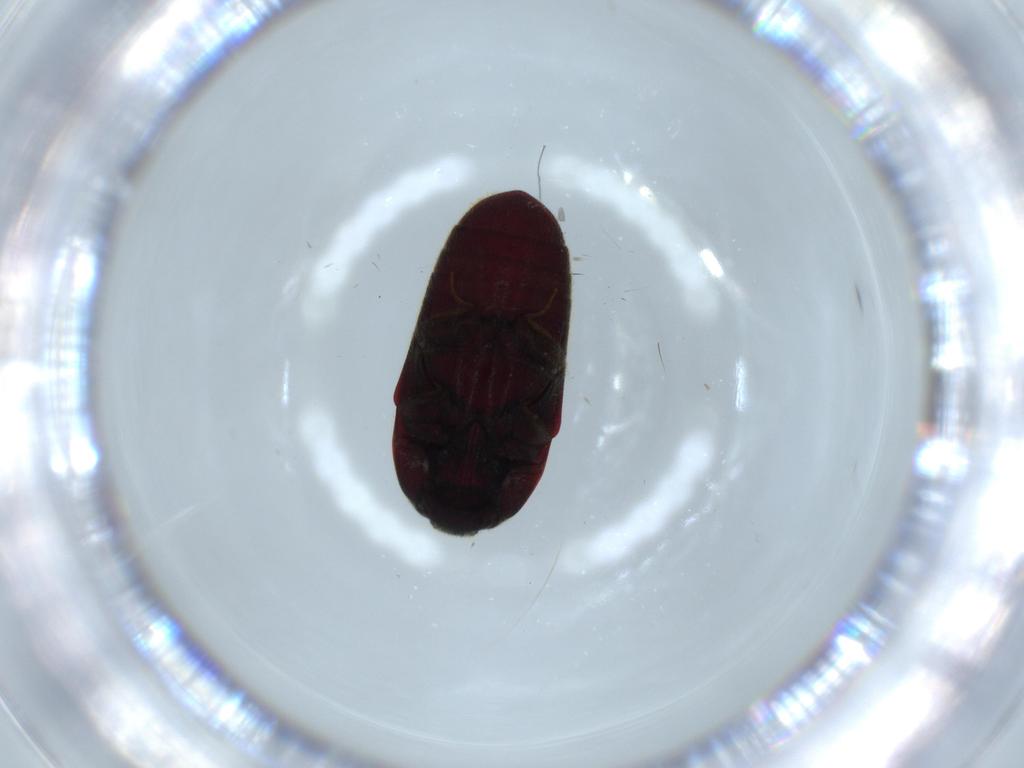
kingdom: Animalia
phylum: Arthropoda
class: Insecta
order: Coleoptera
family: Throscidae
